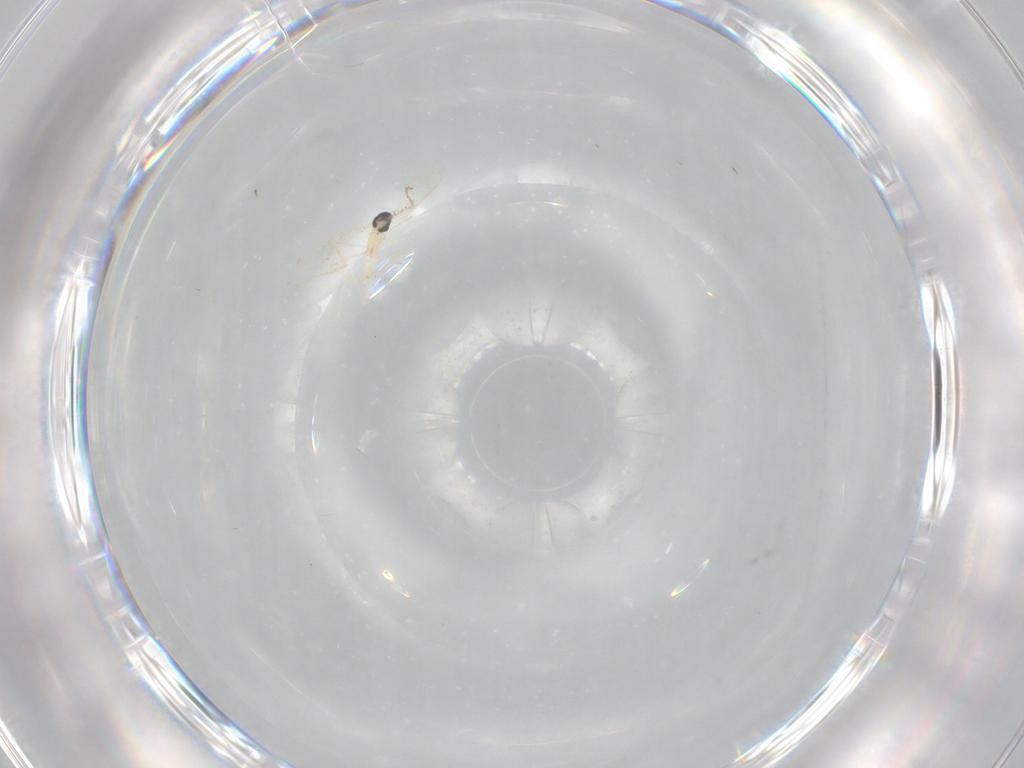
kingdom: Animalia
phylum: Arthropoda
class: Insecta
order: Diptera
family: Cecidomyiidae
